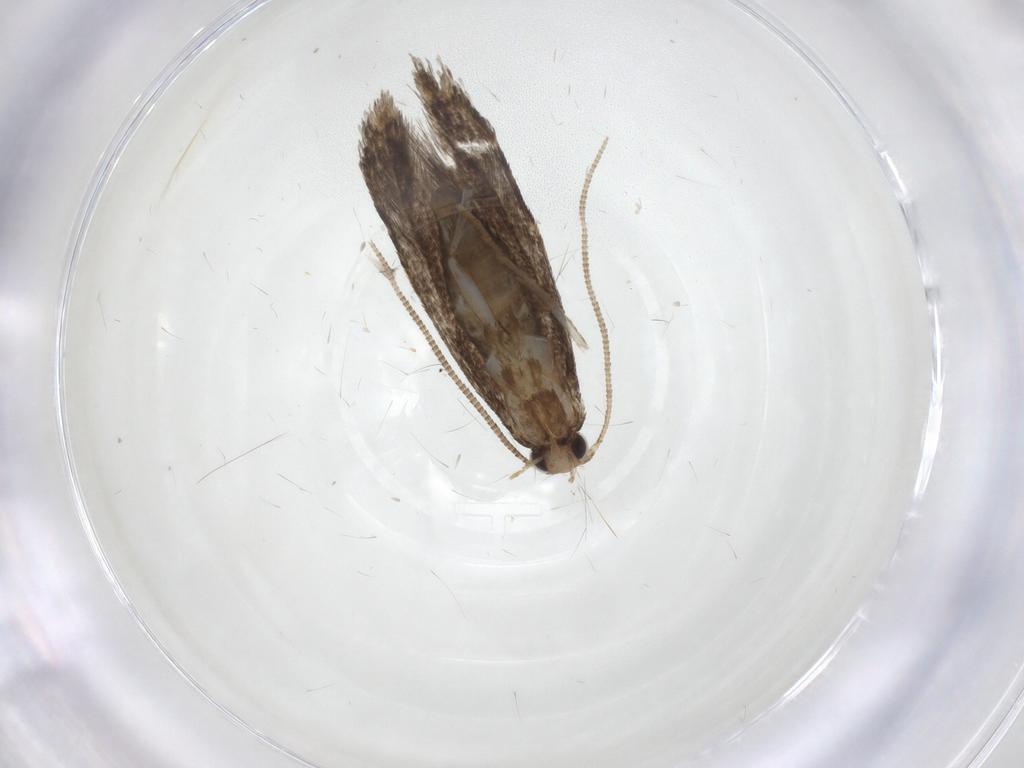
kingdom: Animalia
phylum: Arthropoda
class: Insecta
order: Lepidoptera
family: Tineidae
